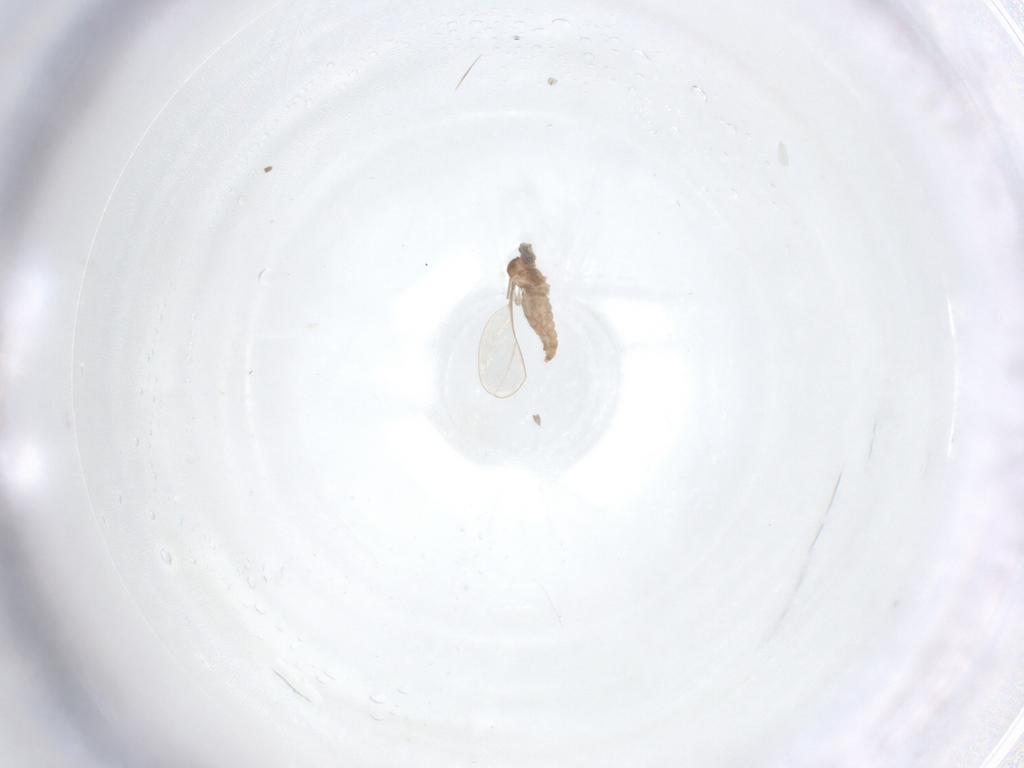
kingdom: Animalia
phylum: Arthropoda
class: Insecta
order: Diptera
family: Cecidomyiidae
